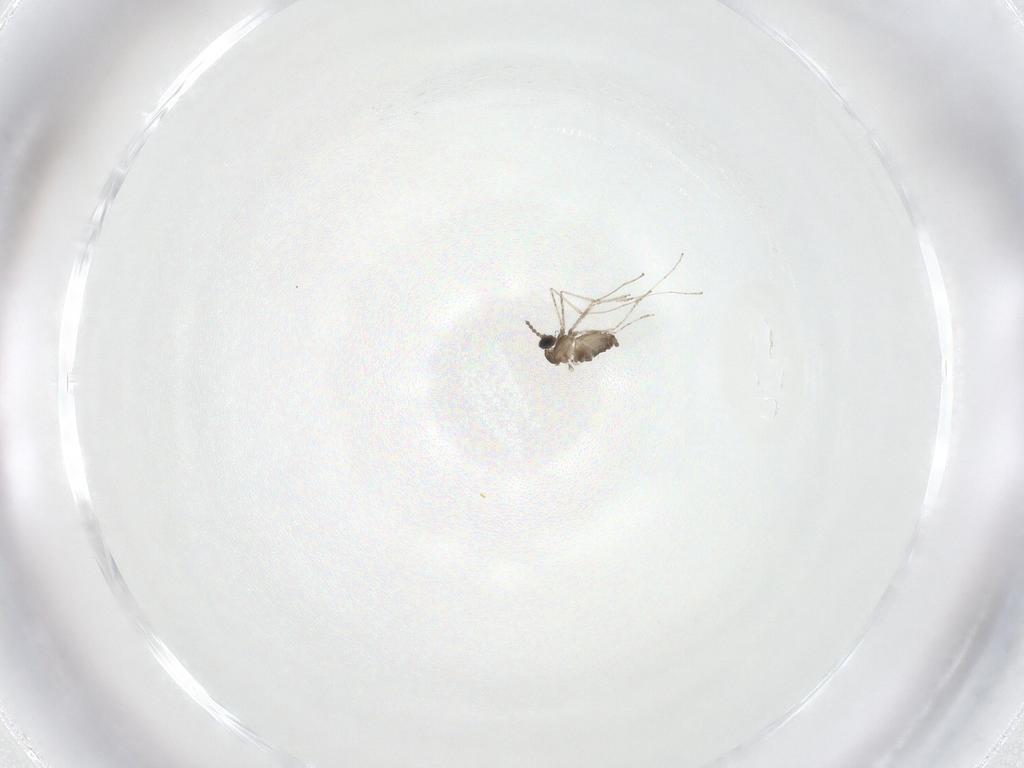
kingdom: Animalia
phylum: Arthropoda
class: Insecta
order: Diptera
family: Cecidomyiidae
